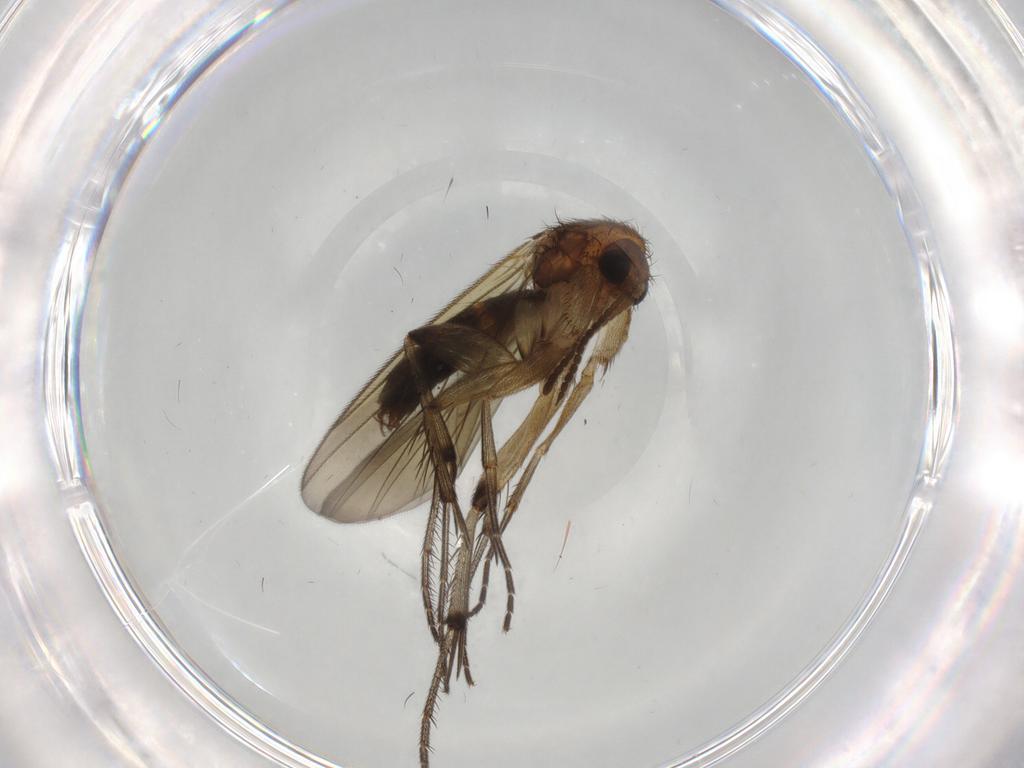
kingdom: Animalia
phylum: Arthropoda
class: Insecta
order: Diptera
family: Mycetophilidae
